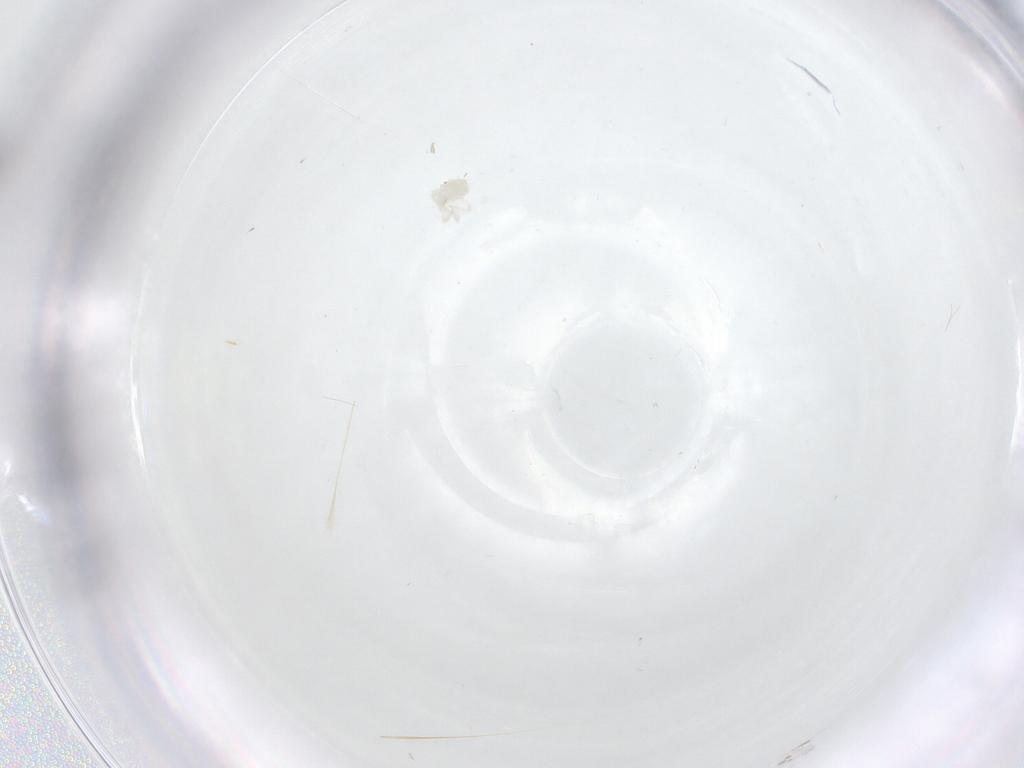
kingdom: Animalia
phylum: Arthropoda
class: Arachnida
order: Trombidiformes
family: Anystidae
